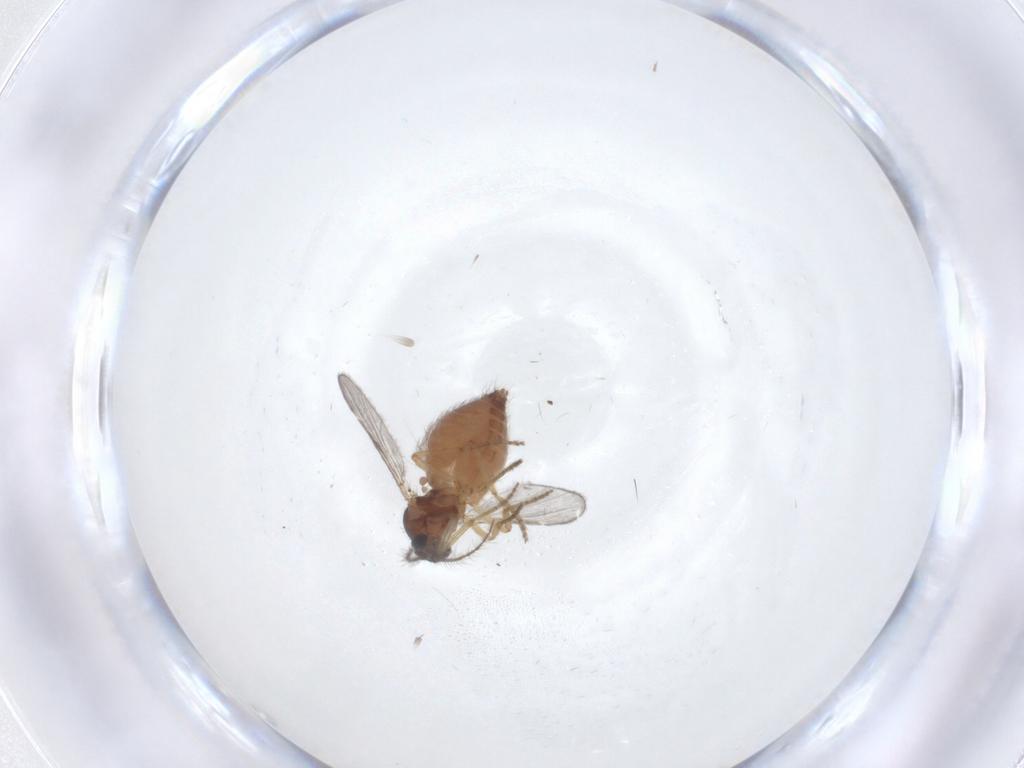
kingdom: Animalia
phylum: Arthropoda
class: Insecta
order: Diptera
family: Ceratopogonidae
